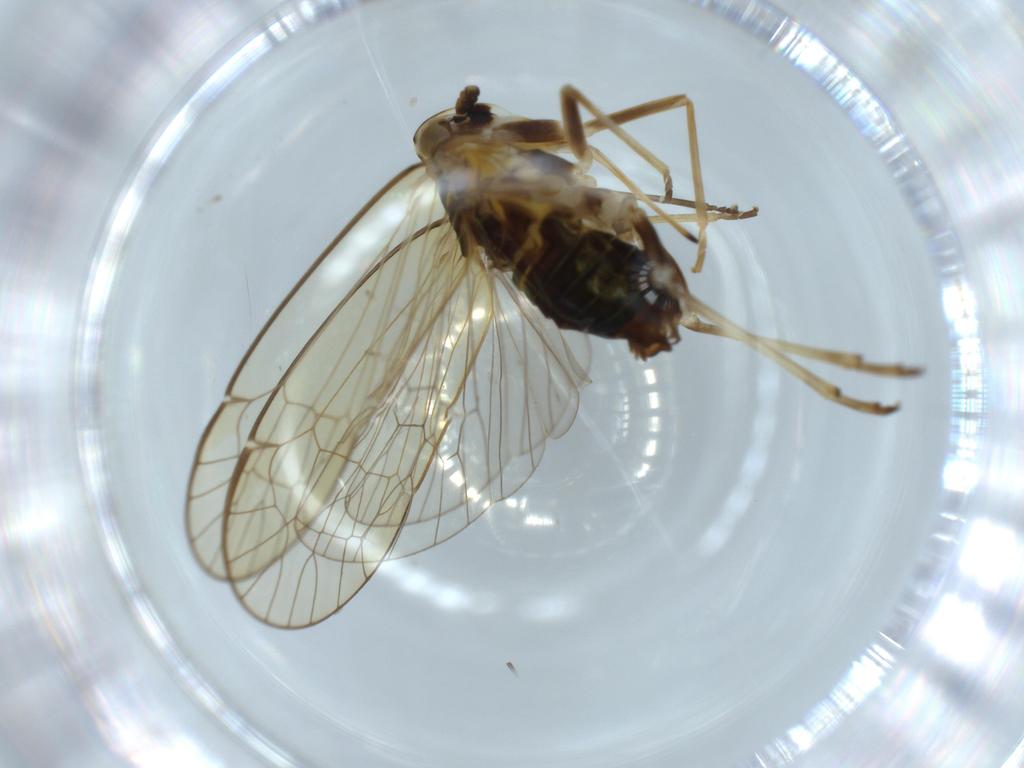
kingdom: Animalia
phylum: Arthropoda
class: Insecta
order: Hemiptera
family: Kinnaridae
